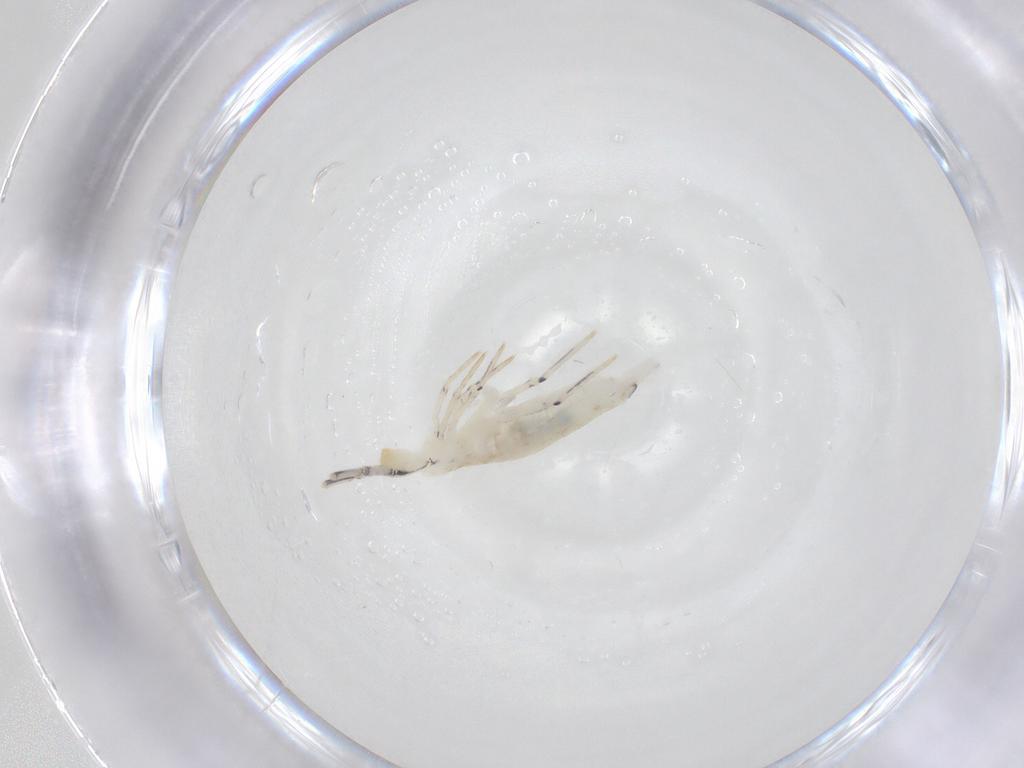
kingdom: Animalia
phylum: Arthropoda
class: Collembola
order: Entomobryomorpha
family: Entomobryidae
